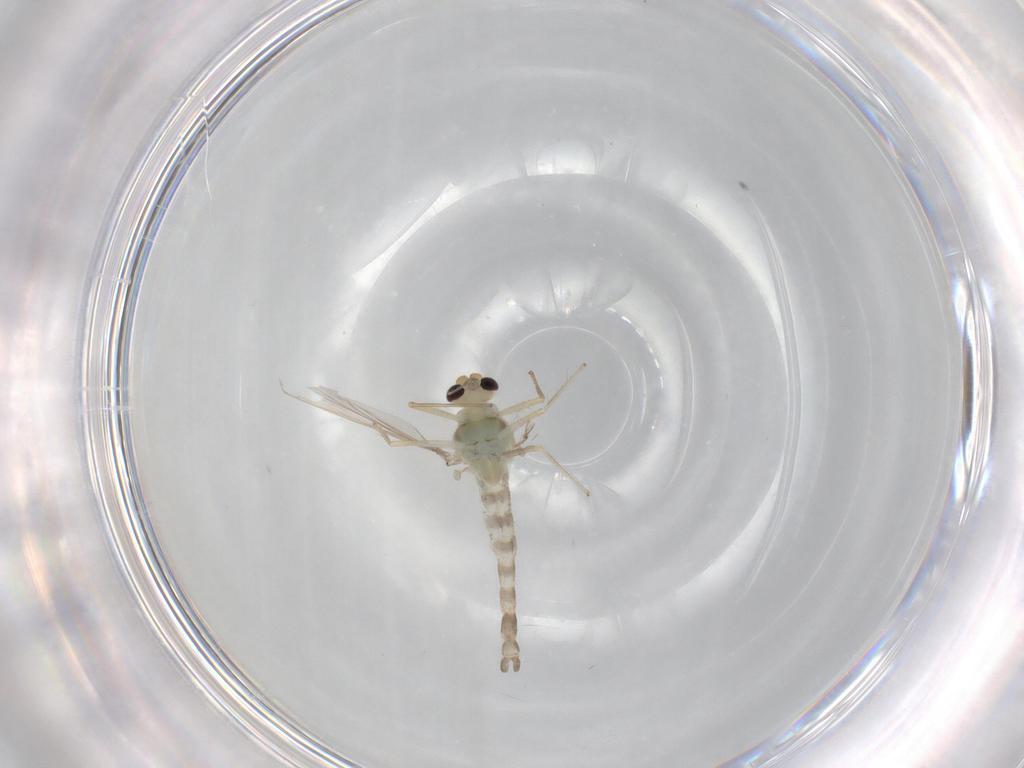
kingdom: Animalia
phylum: Arthropoda
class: Insecta
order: Diptera
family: Chironomidae
